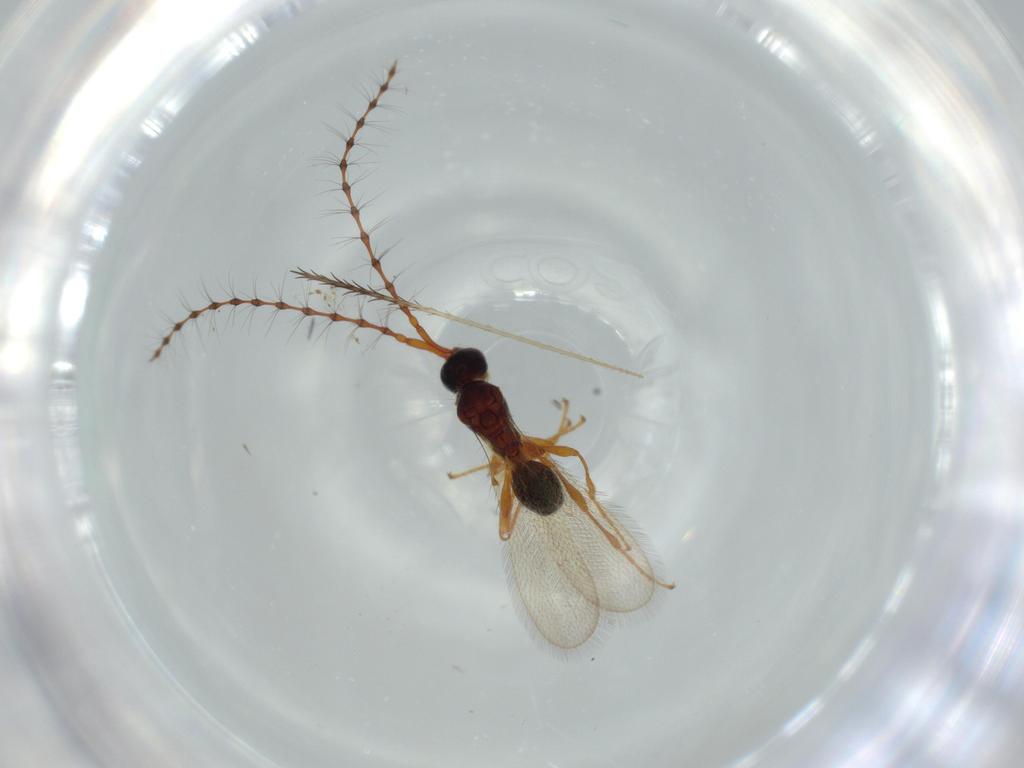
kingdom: Animalia
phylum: Arthropoda
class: Insecta
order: Hymenoptera
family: Diapriidae
